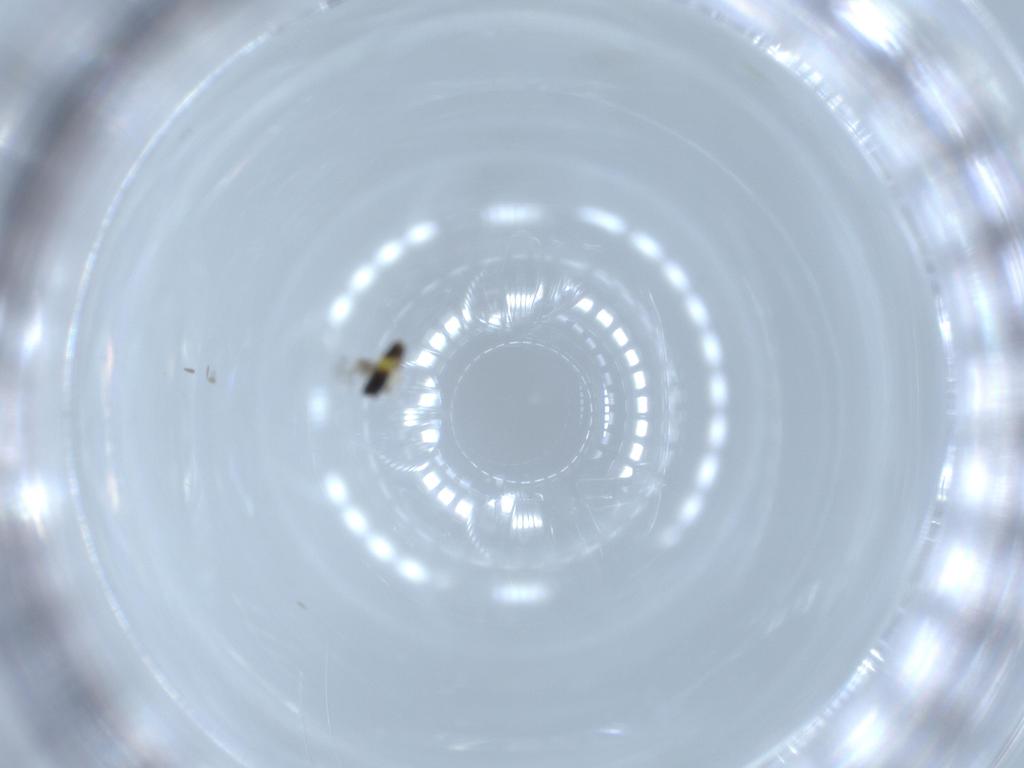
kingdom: Animalia
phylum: Arthropoda
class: Insecta
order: Hymenoptera
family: Signiphoridae
